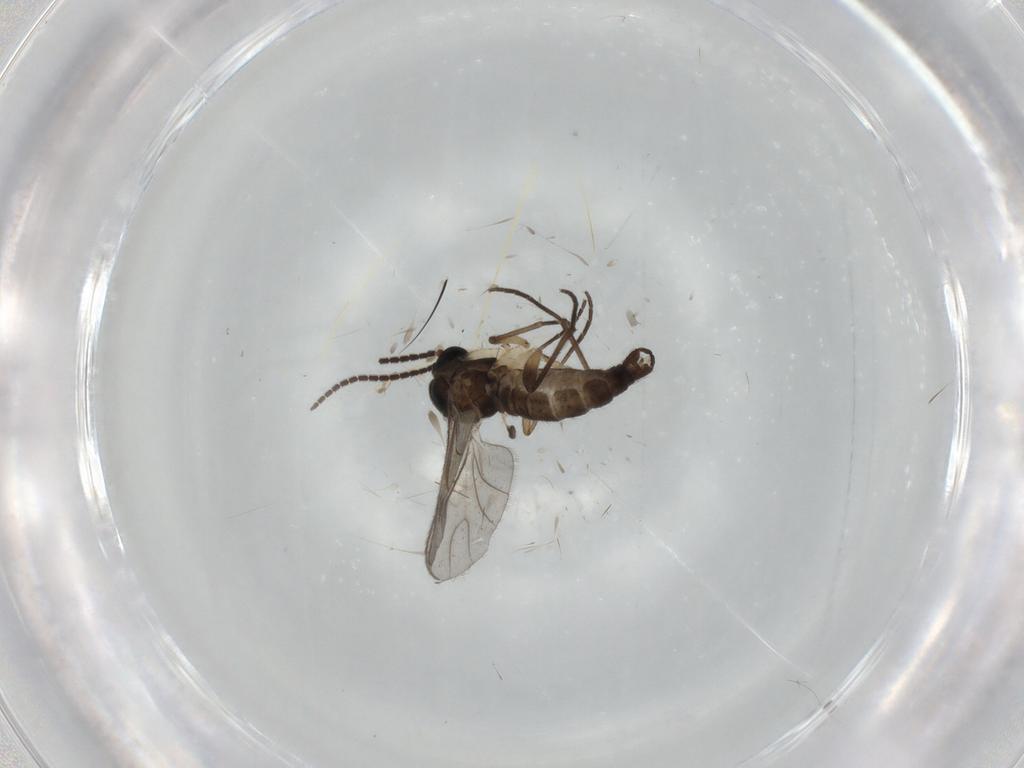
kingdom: Animalia
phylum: Arthropoda
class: Insecta
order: Diptera
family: Sciaridae
